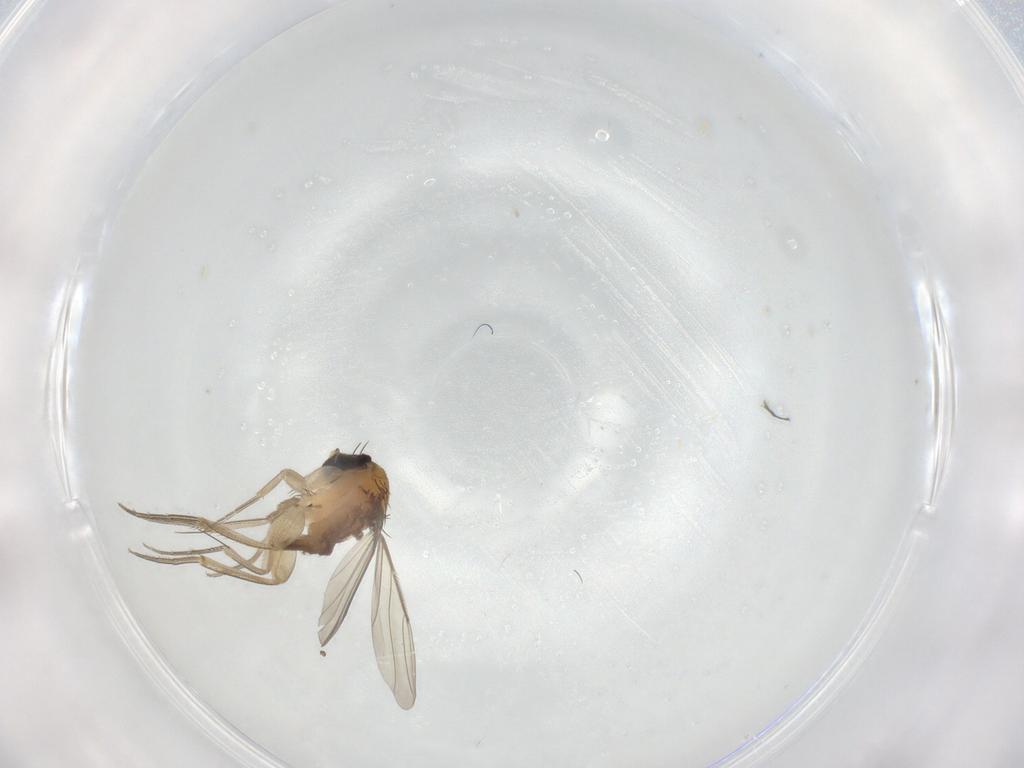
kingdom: Animalia
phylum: Arthropoda
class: Insecta
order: Diptera
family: Phoridae
